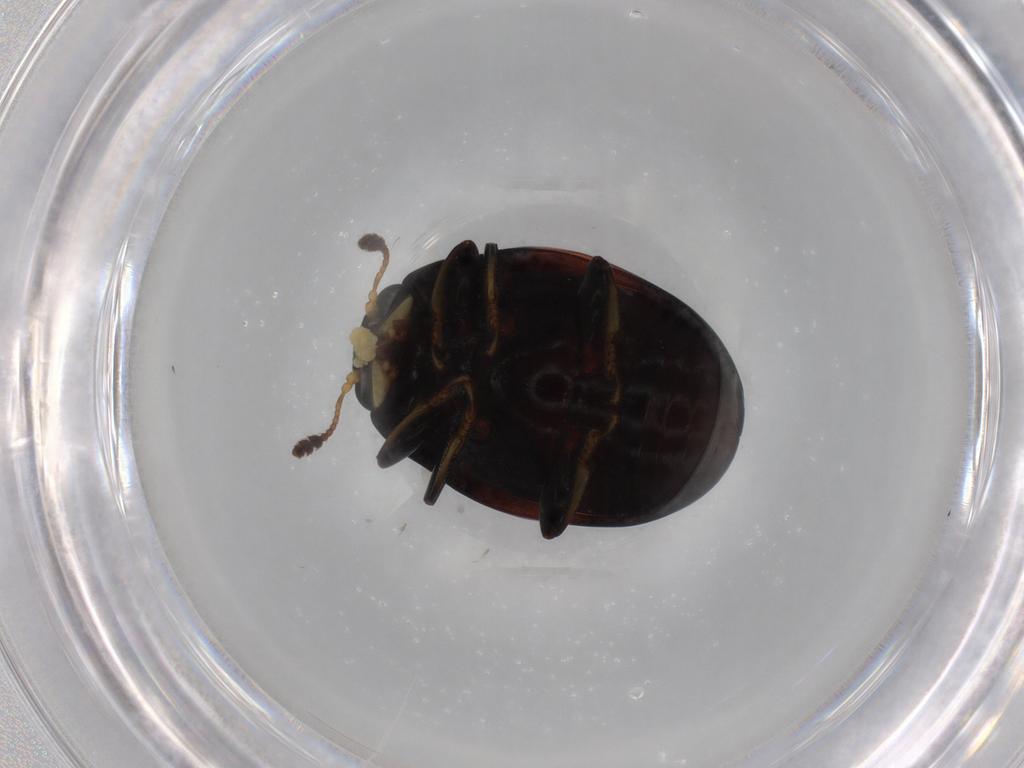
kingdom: Animalia
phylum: Arthropoda
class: Insecta
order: Coleoptera
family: Erotylidae
